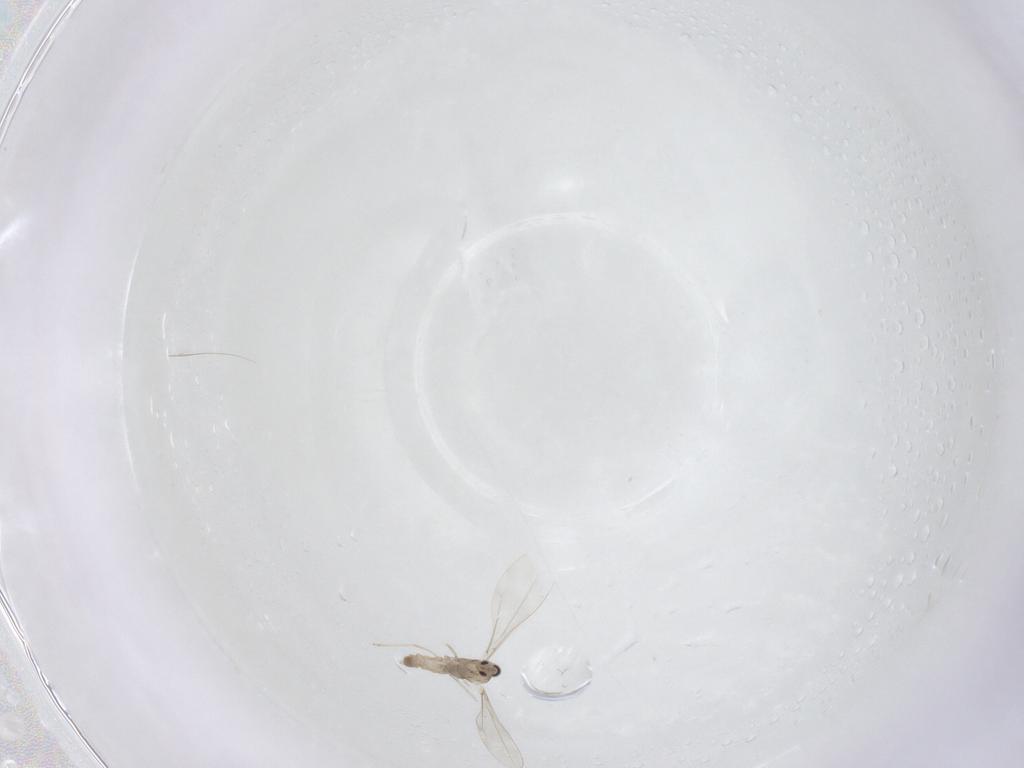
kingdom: Animalia
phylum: Arthropoda
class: Insecta
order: Diptera
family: Cecidomyiidae
